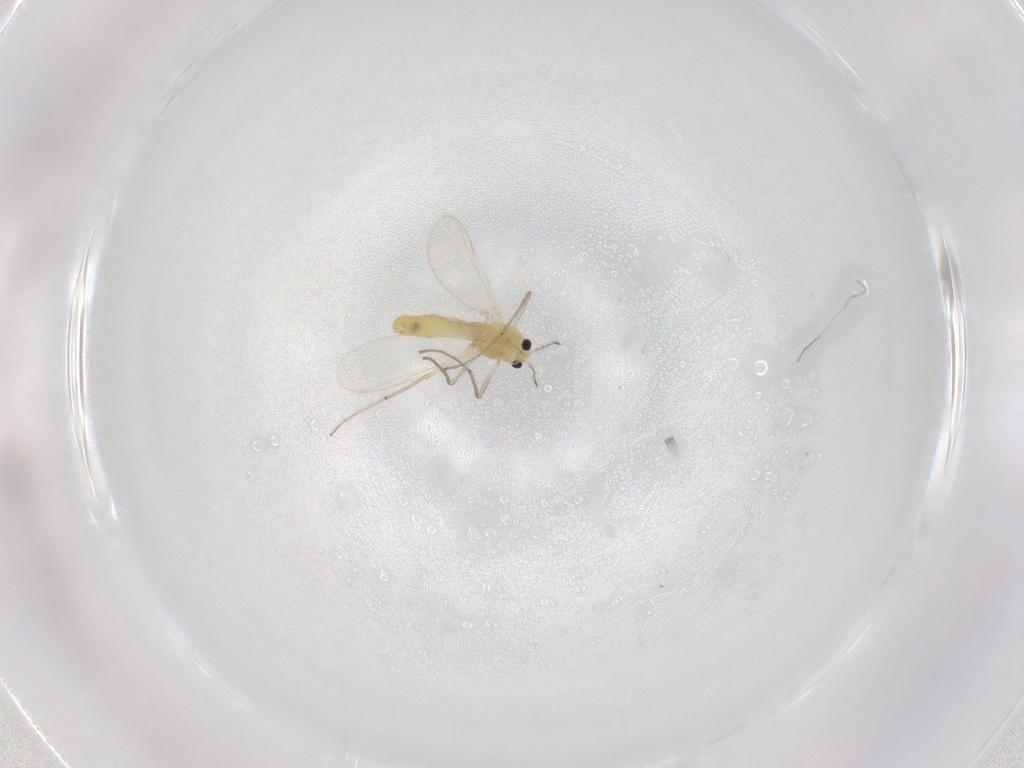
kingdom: Animalia
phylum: Arthropoda
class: Insecta
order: Diptera
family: Chironomidae
